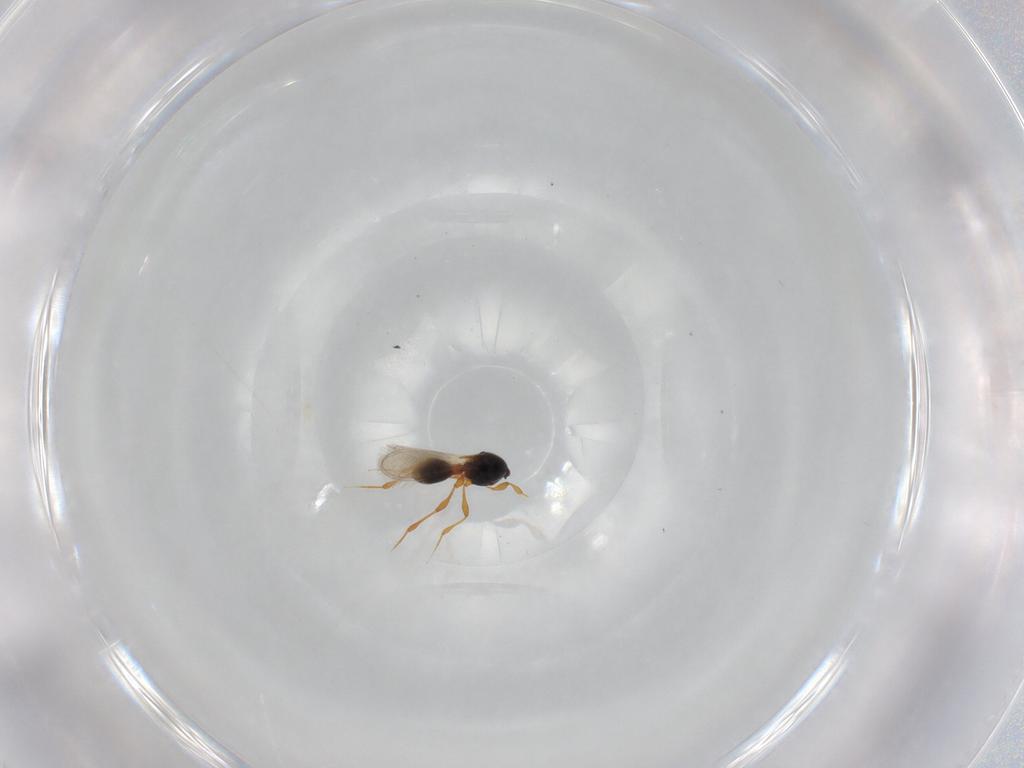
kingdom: Animalia
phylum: Arthropoda
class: Insecta
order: Hymenoptera
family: Platygastridae
